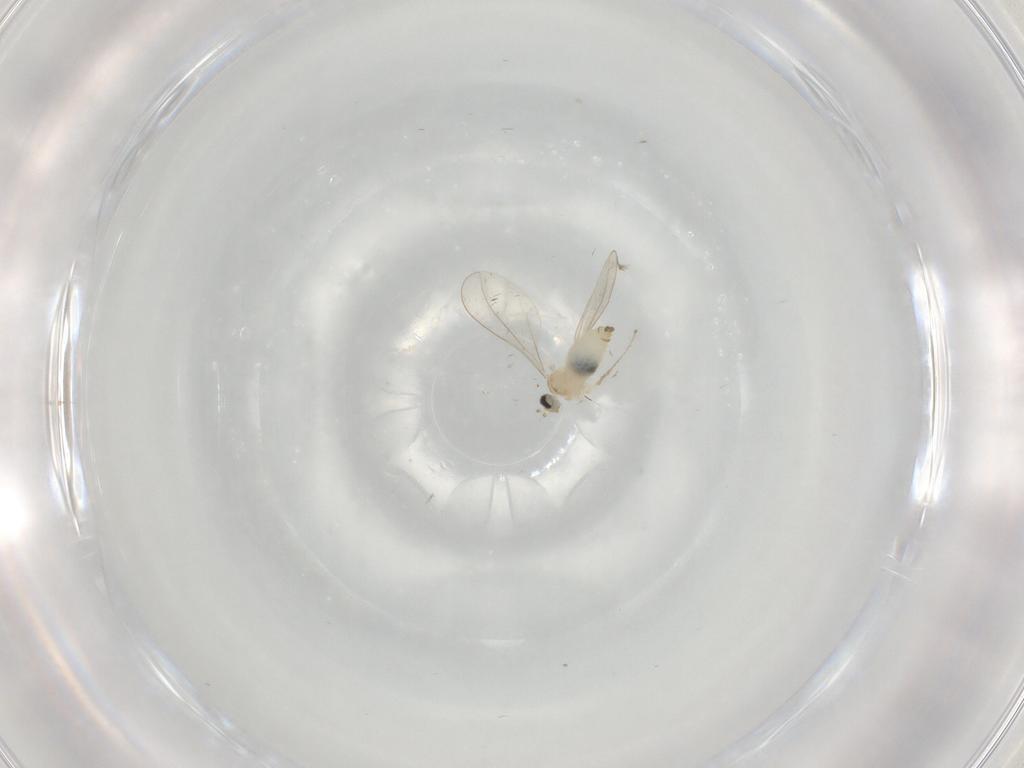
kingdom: Animalia
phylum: Arthropoda
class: Insecta
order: Diptera
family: Cecidomyiidae
